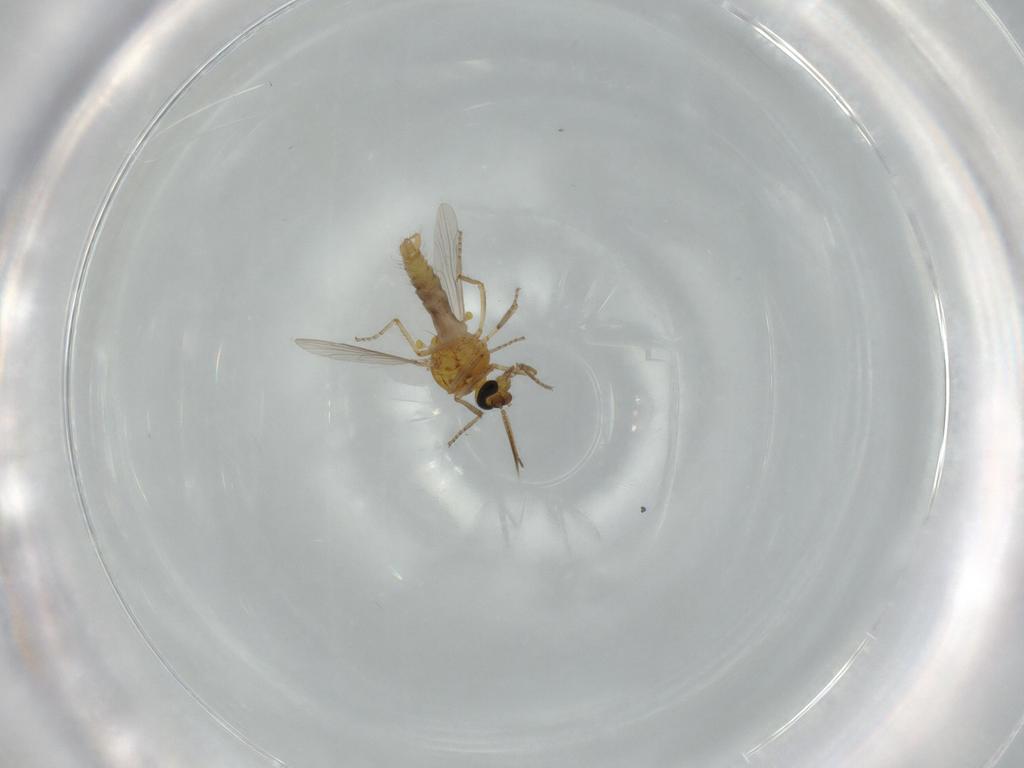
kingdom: Animalia
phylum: Arthropoda
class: Insecta
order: Diptera
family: Ceratopogonidae
